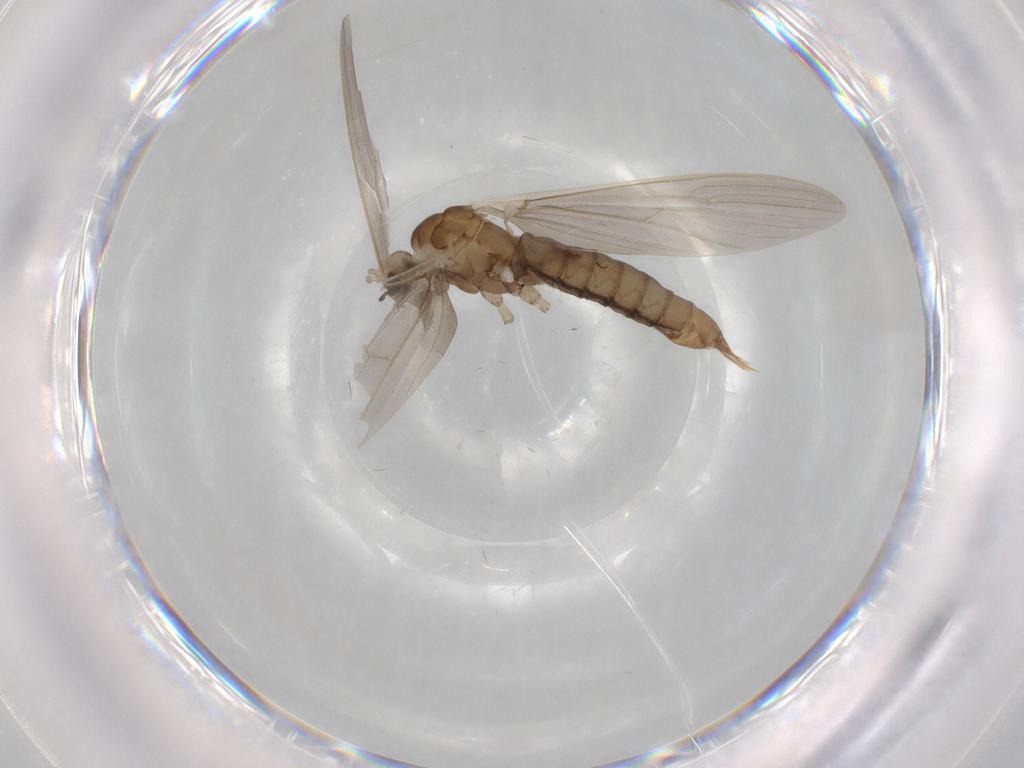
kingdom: Animalia
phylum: Arthropoda
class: Insecta
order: Diptera
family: Limoniidae
